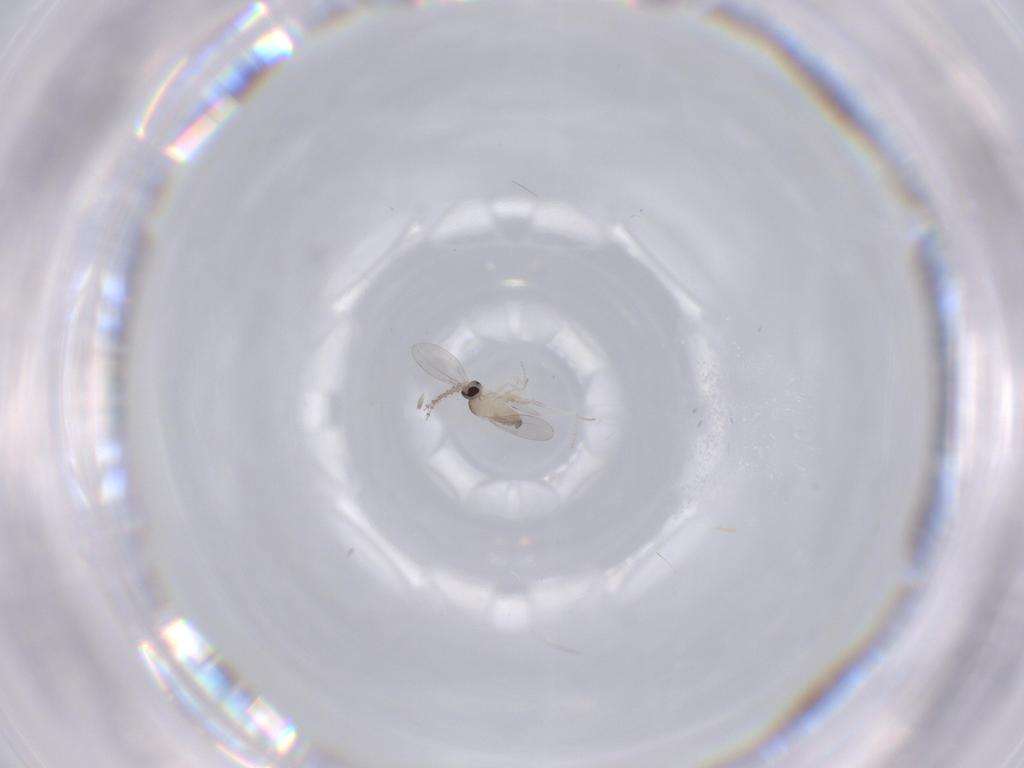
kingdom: Animalia
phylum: Arthropoda
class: Insecta
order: Diptera
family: Cecidomyiidae
